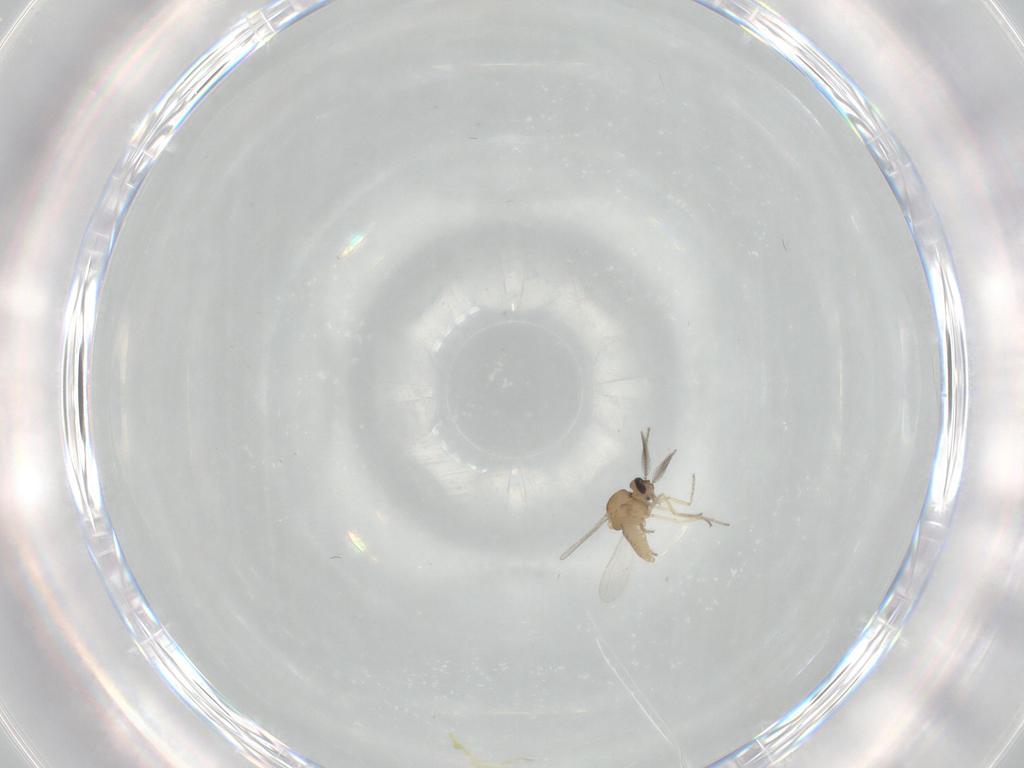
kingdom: Animalia
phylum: Arthropoda
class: Insecta
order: Diptera
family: Ceratopogonidae
